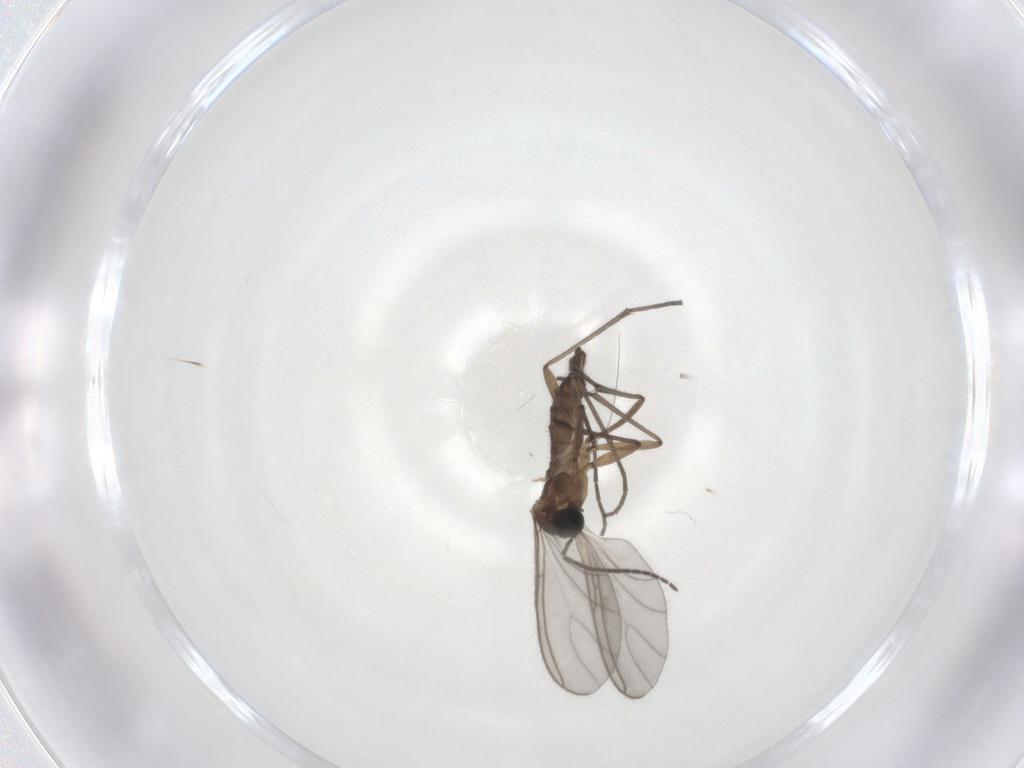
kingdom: Animalia
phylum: Arthropoda
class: Insecta
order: Diptera
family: Sciaridae
